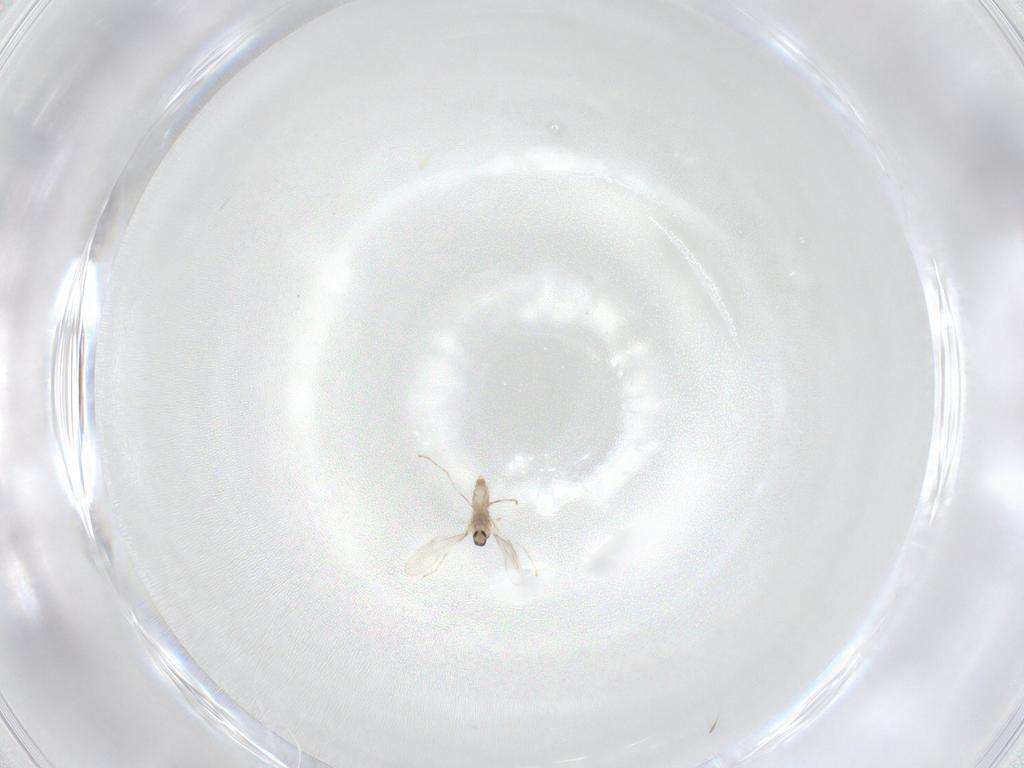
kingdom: Animalia
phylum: Arthropoda
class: Insecta
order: Diptera
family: Cecidomyiidae
